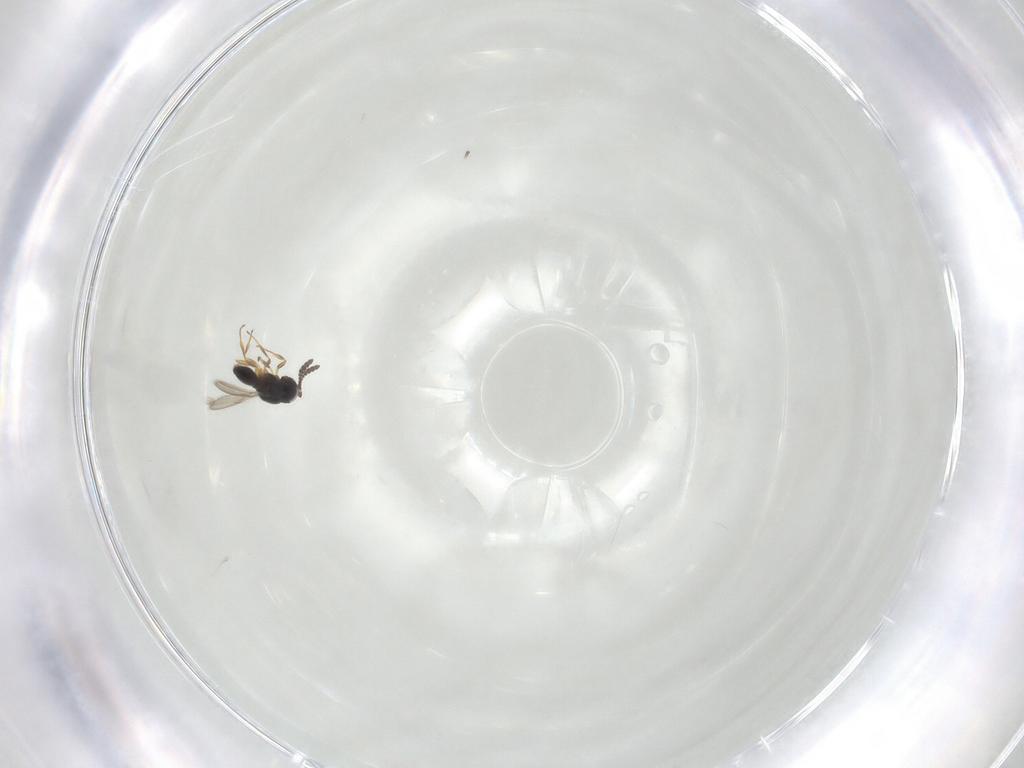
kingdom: Animalia
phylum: Arthropoda
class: Insecta
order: Hymenoptera
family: Scelionidae
